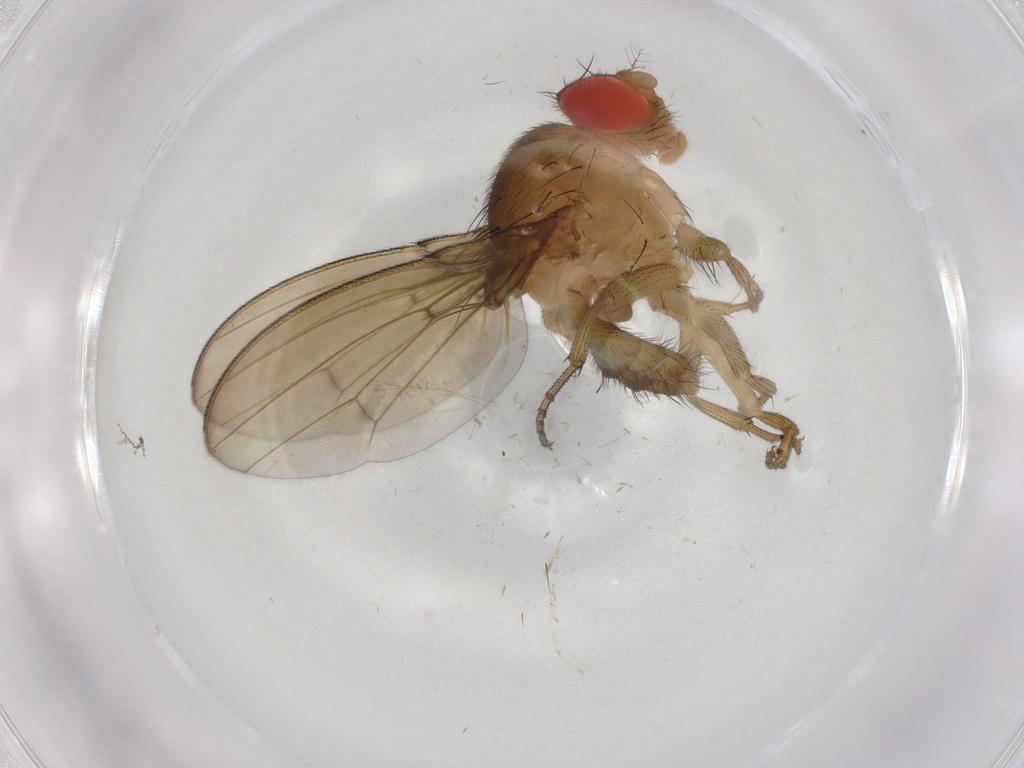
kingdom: Animalia
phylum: Arthropoda
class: Insecta
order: Diptera
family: Drosophilidae
